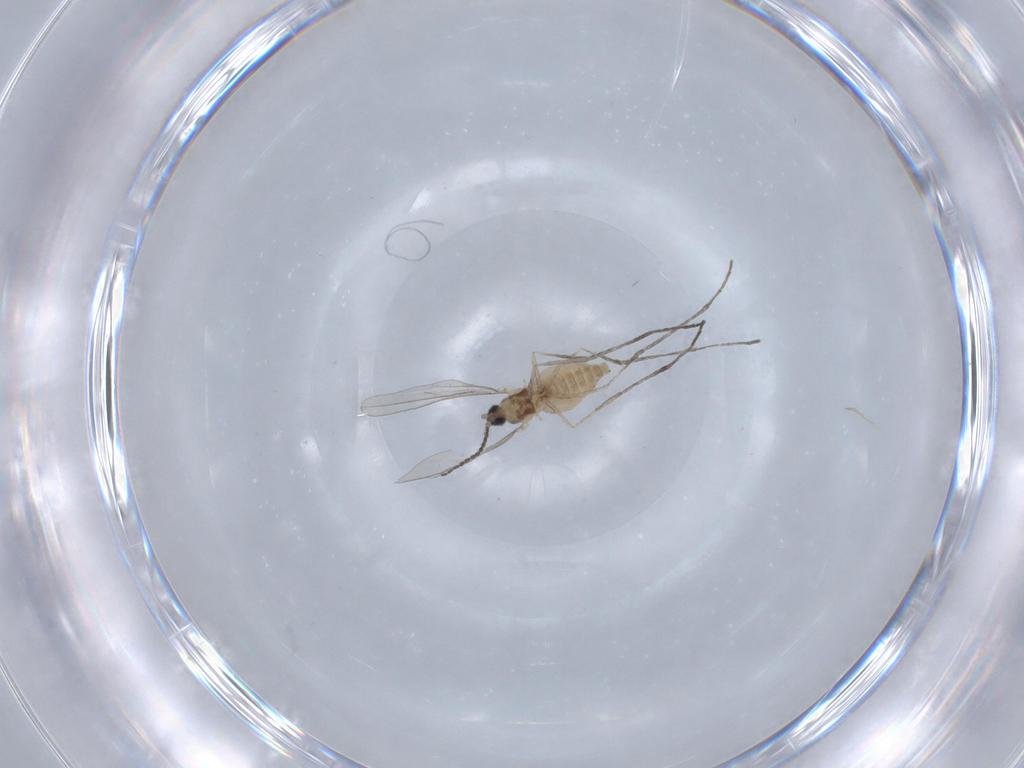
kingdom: Animalia
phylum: Arthropoda
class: Insecta
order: Diptera
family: Cecidomyiidae
